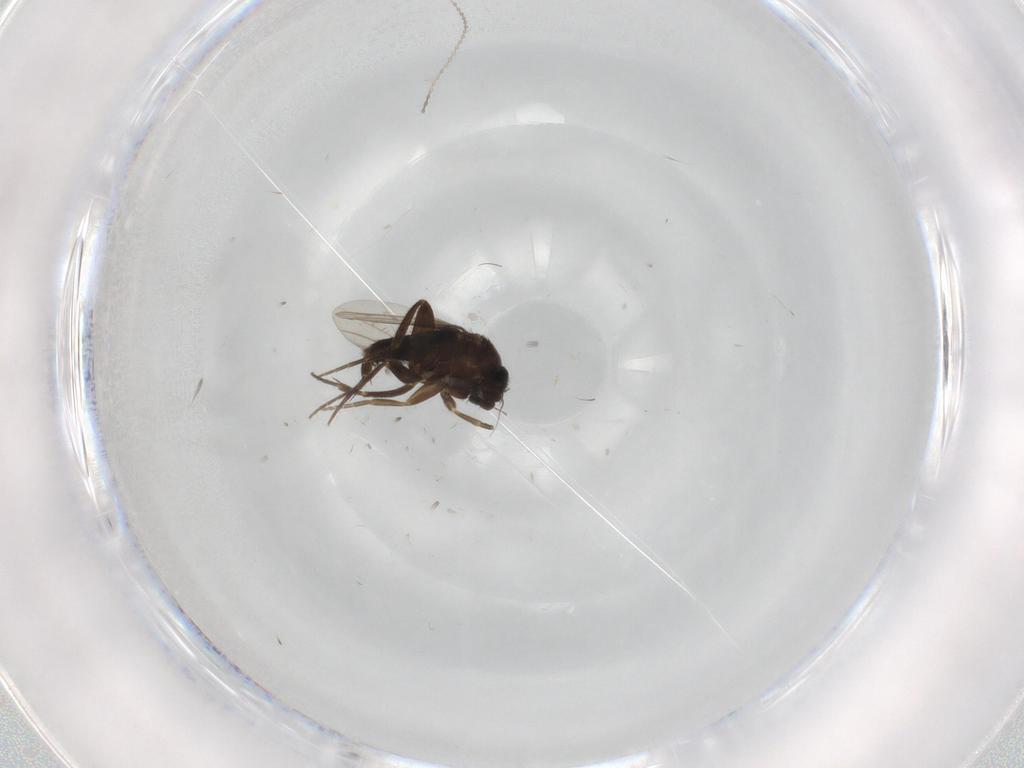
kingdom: Animalia
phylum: Arthropoda
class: Insecta
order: Diptera
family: Phoridae
